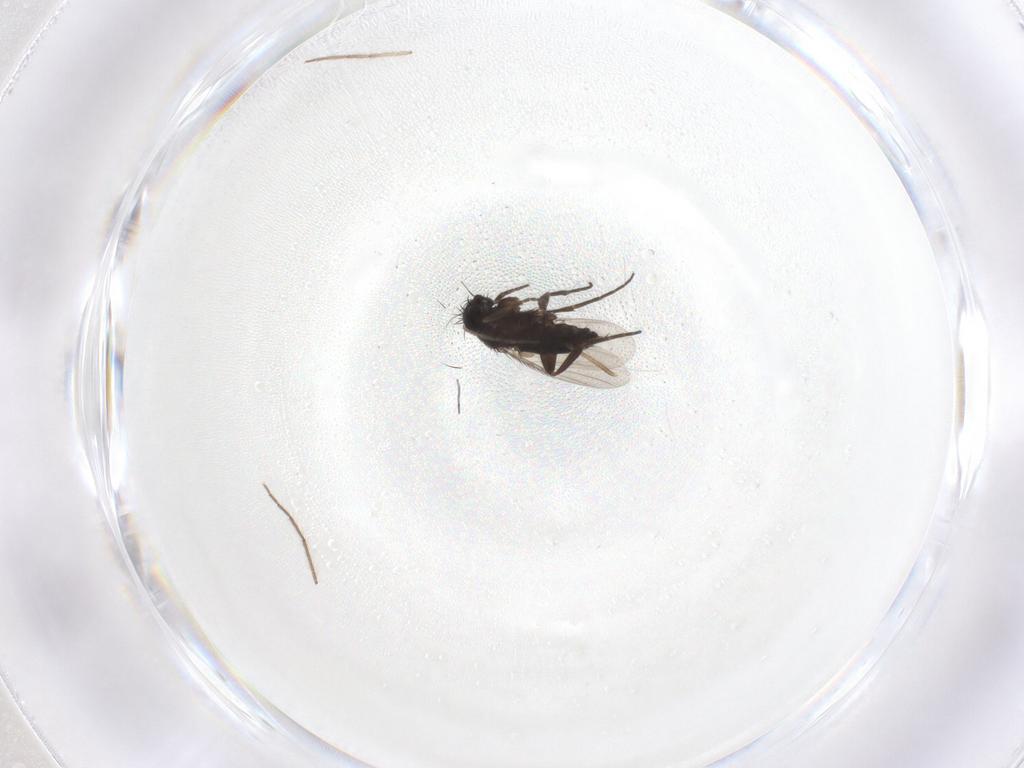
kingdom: Animalia
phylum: Arthropoda
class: Insecta
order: Diptera
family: Phoridae
